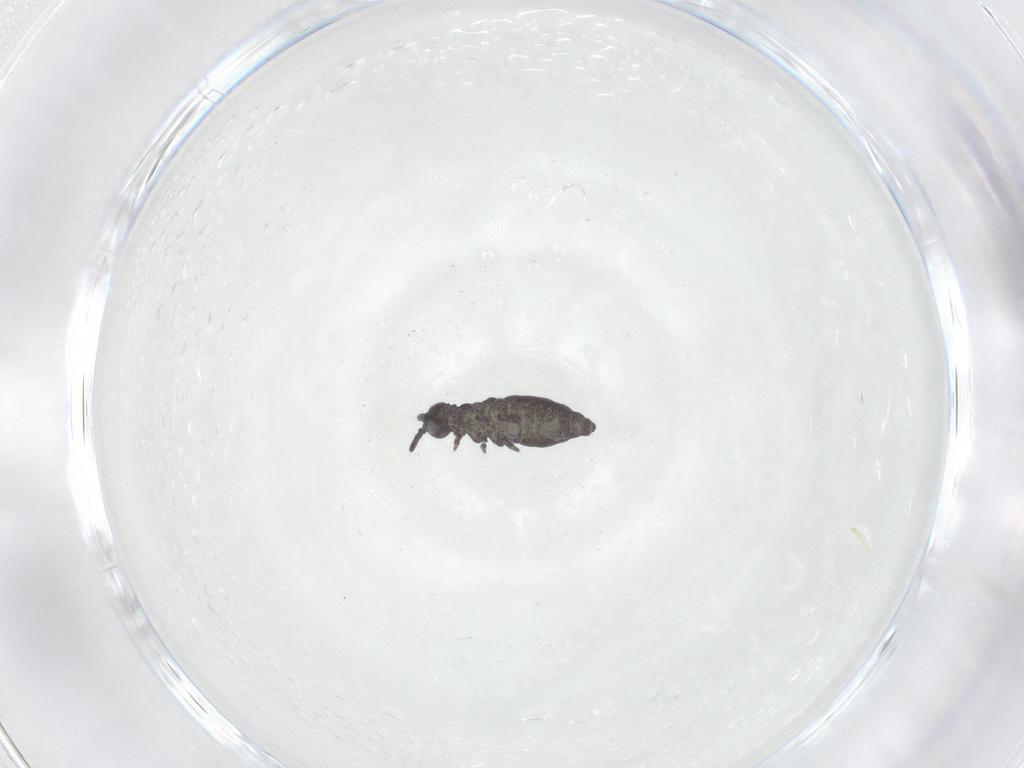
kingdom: Animalia
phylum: Arthropoda
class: Collembola
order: Poduromorpha
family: Hypogastruridae
